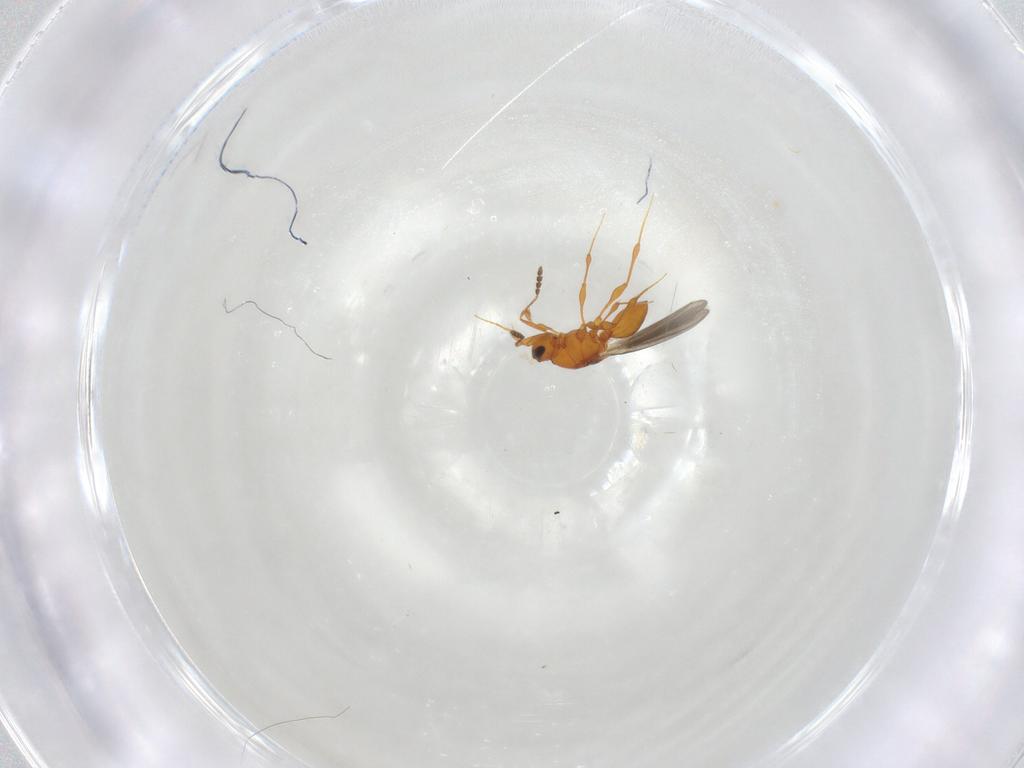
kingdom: Animalia
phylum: Arthropoda
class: Insecta
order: Hymenoptera
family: Platygastridae
